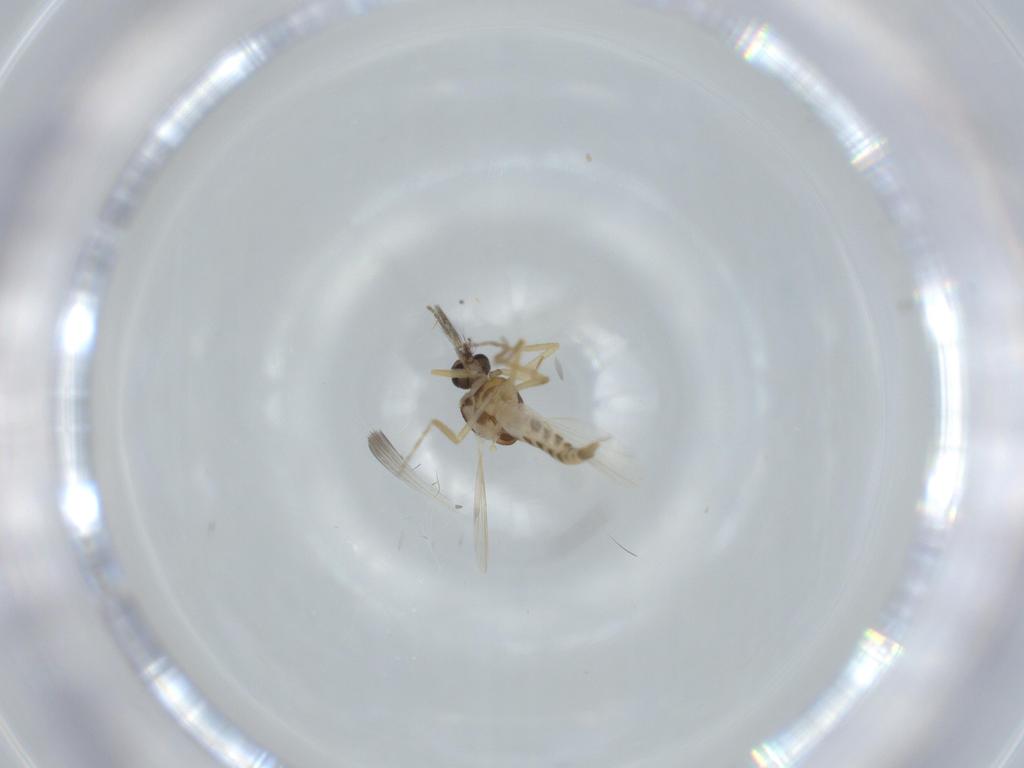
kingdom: Animalia
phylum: Arthropoda
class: Insecta
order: Diptera
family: Ceratopogonidae
